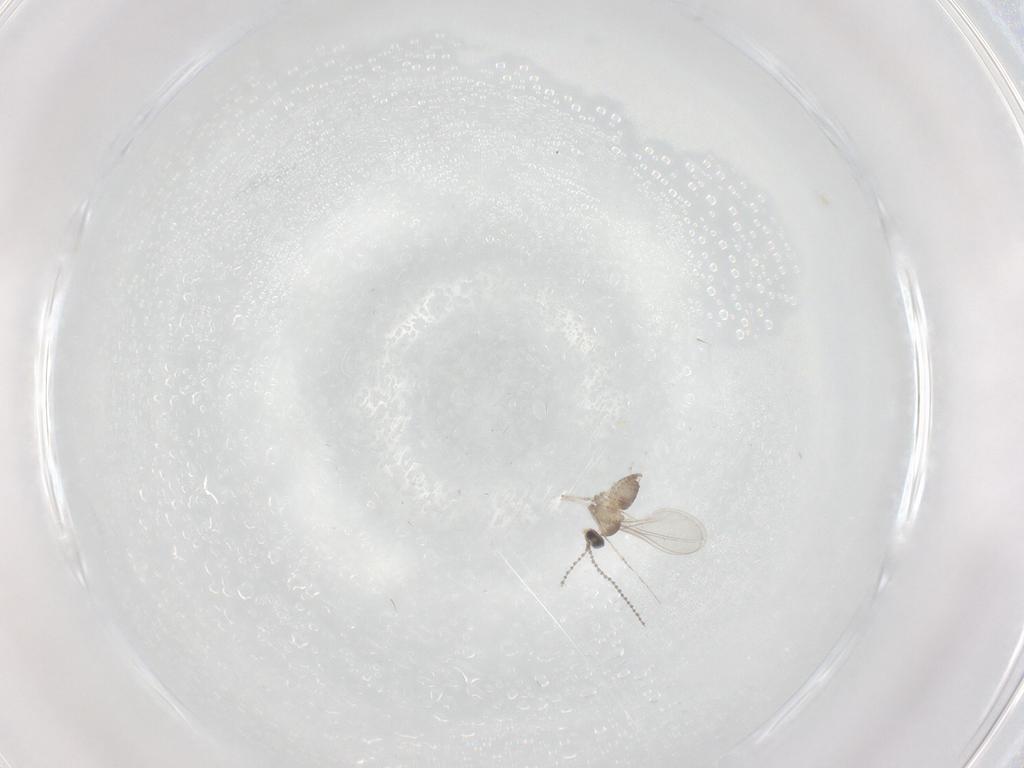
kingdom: Animalia
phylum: Arthropoda
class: Insecta
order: Diptera
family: Cecidomyiidae
